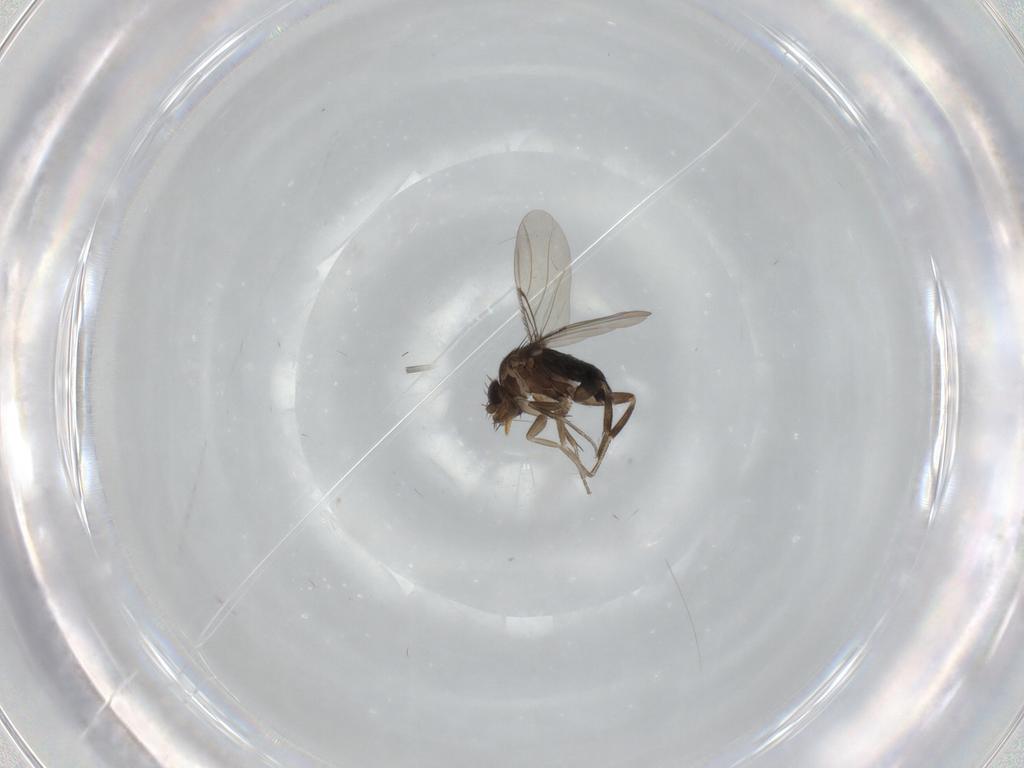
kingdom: Animalia
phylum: Arthropoda
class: Insecta
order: Diptera
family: Phoridae
